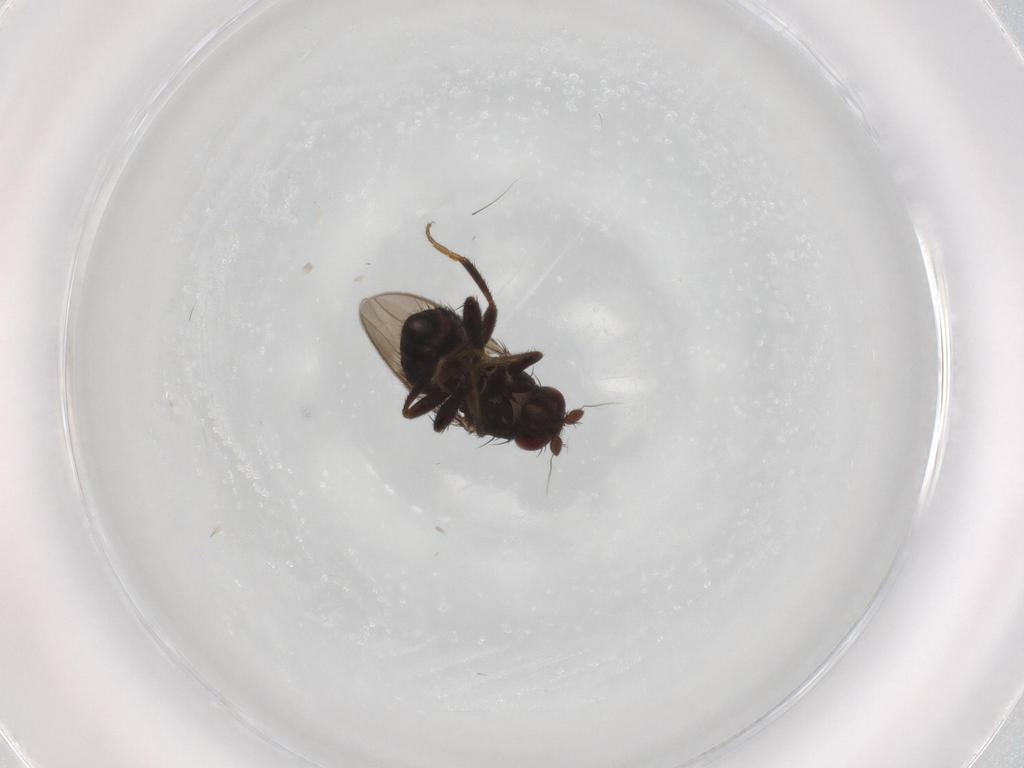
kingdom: Animalia
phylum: Arthropoda
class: Insecta
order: Diptera
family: Sphaeroceridae
